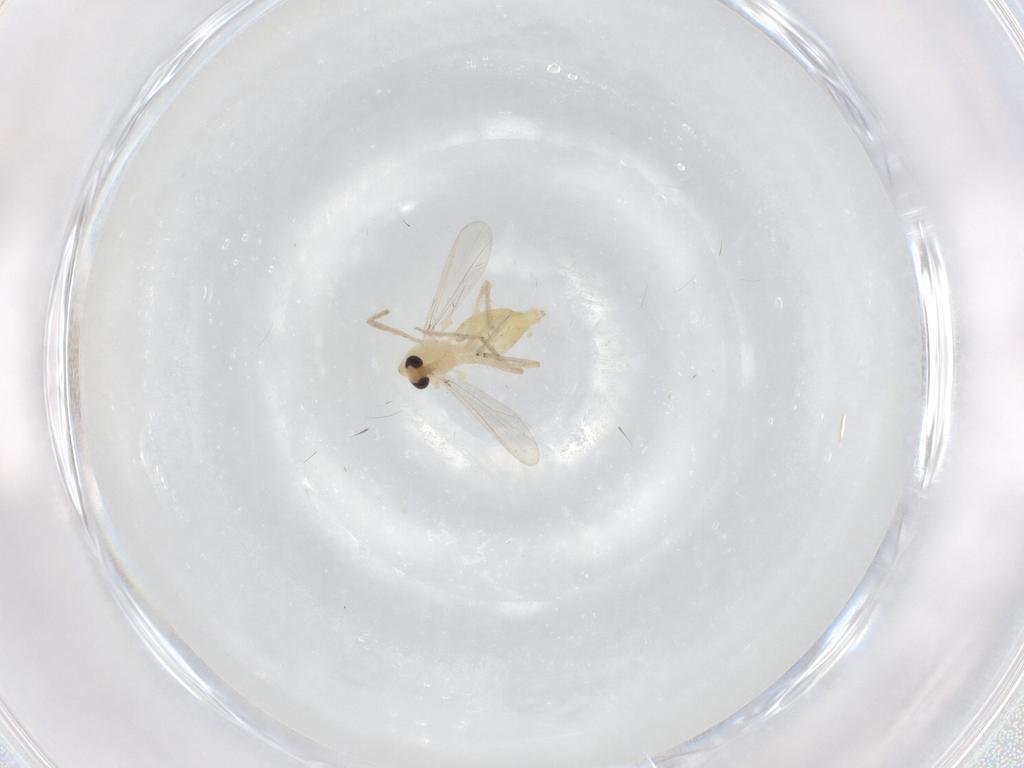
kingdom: Animalia
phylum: Arthropoda
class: Insecta
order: Diptera
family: Chironomidae
